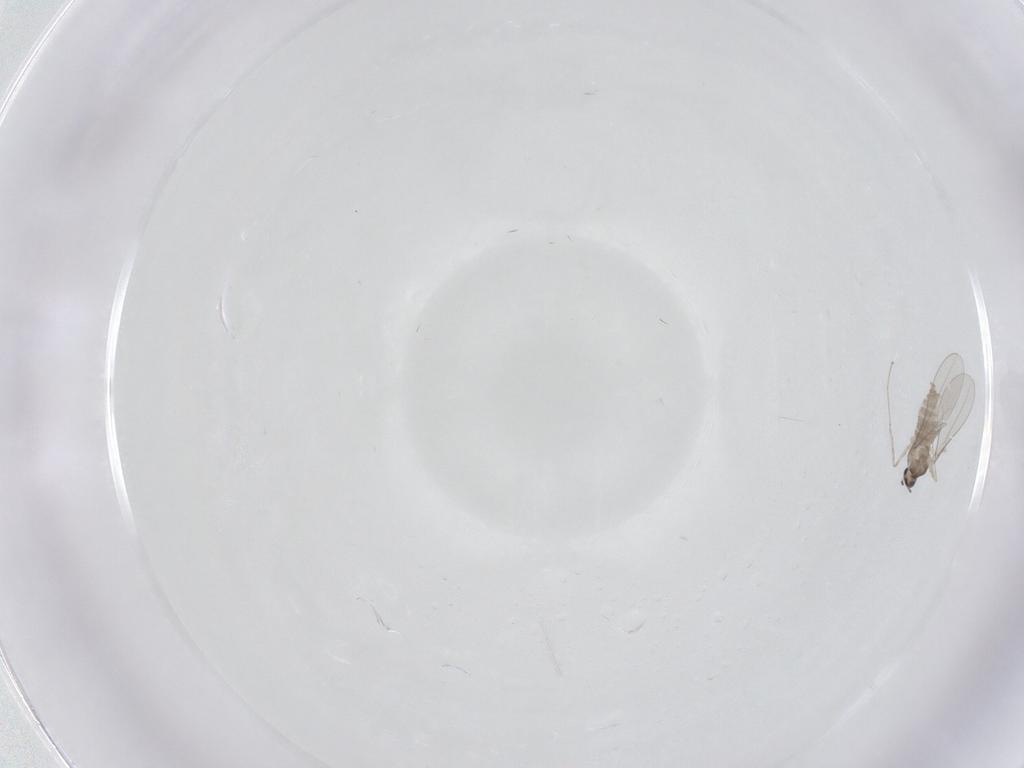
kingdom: Animalia
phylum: Arthropoda
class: Insecta
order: Diptera
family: Cecidomyiidae
